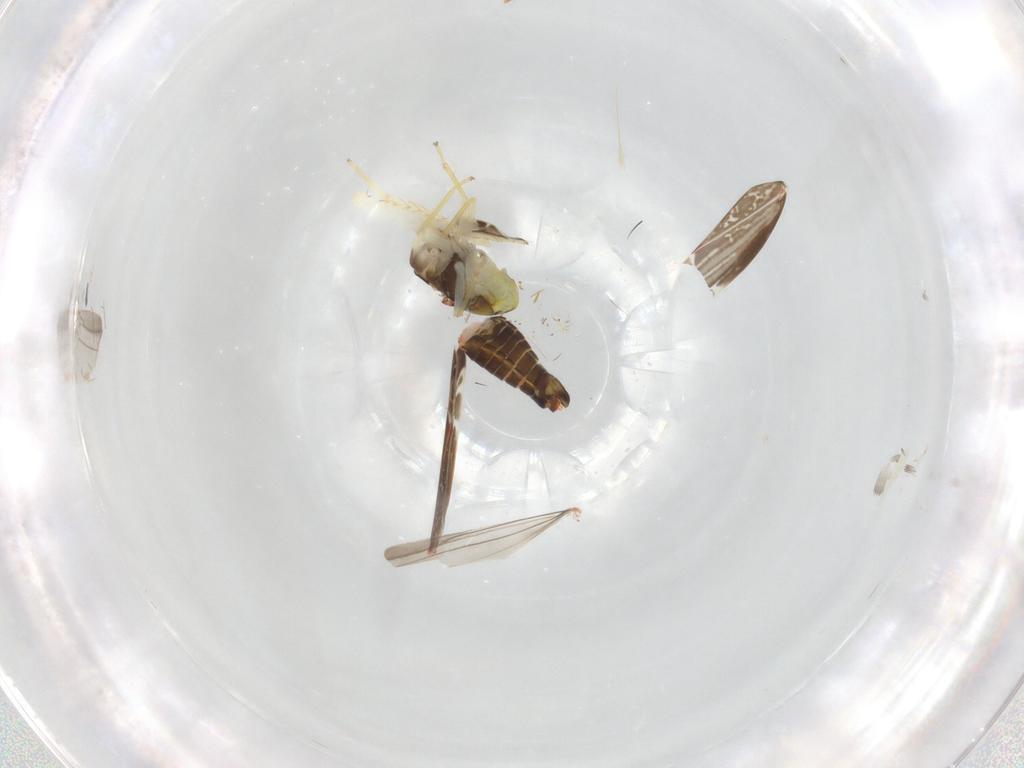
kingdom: Animalia
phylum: Arthropoda
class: Insecta
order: Hemiptera
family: Cicadellidae
